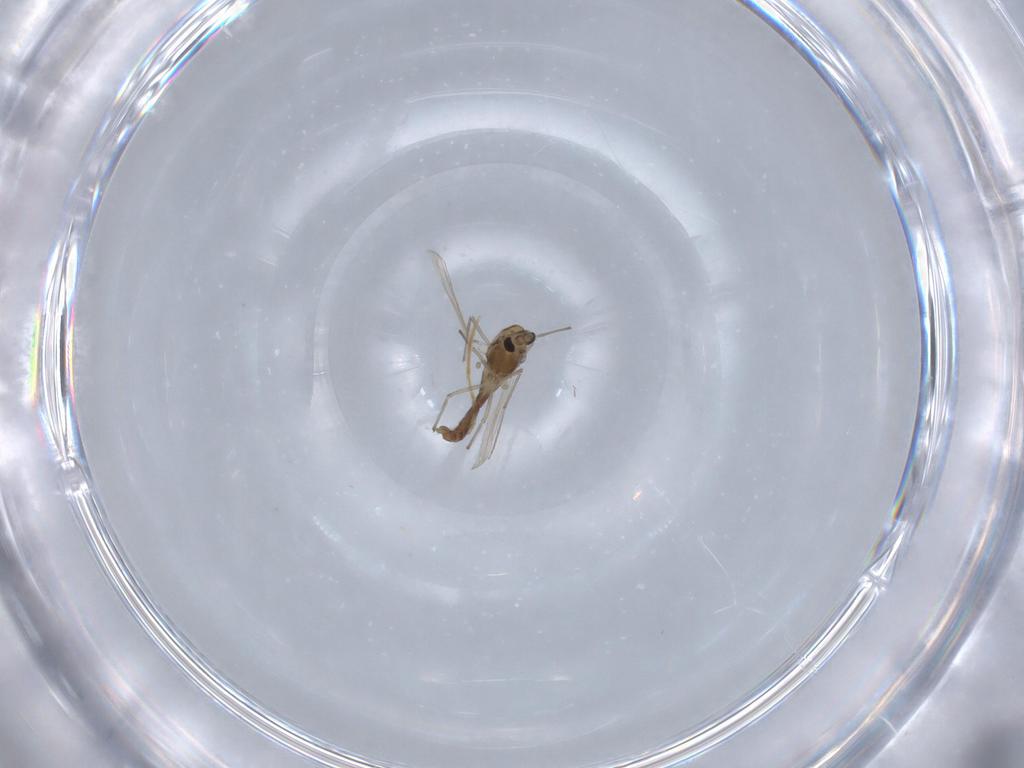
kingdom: Animalia
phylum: Arthropoda
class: Insecta
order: Diptera
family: Chironomidae
